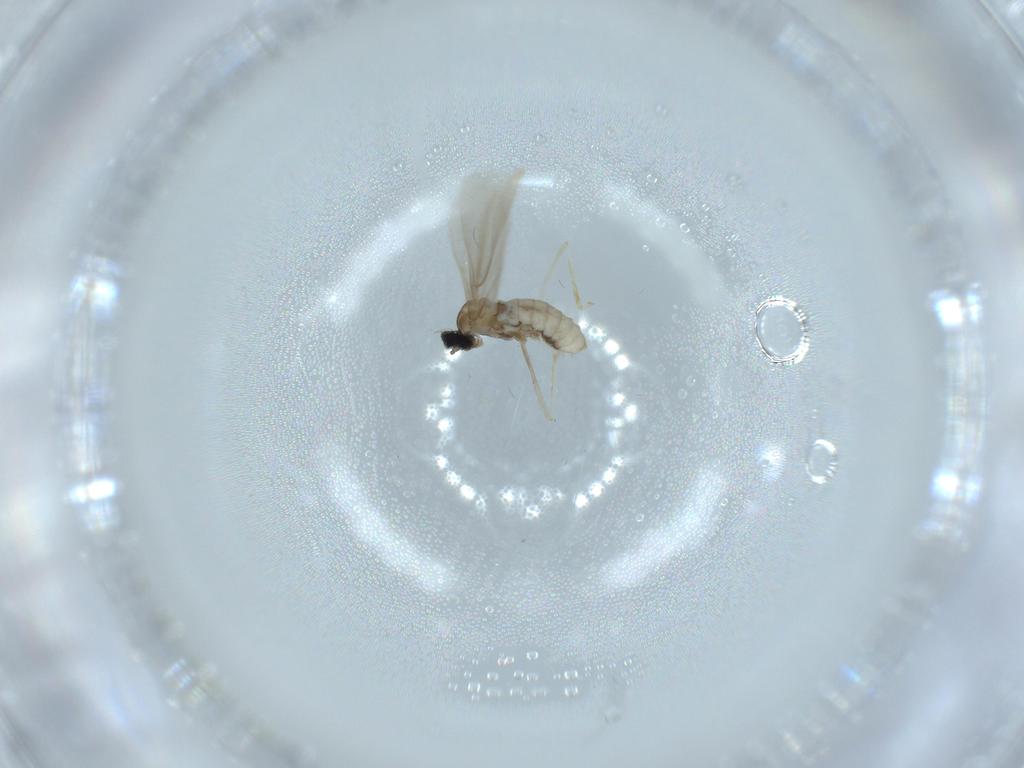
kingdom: Animalia
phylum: Arthropoda
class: Insecta
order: Diptera
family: Cecidomyiidae
